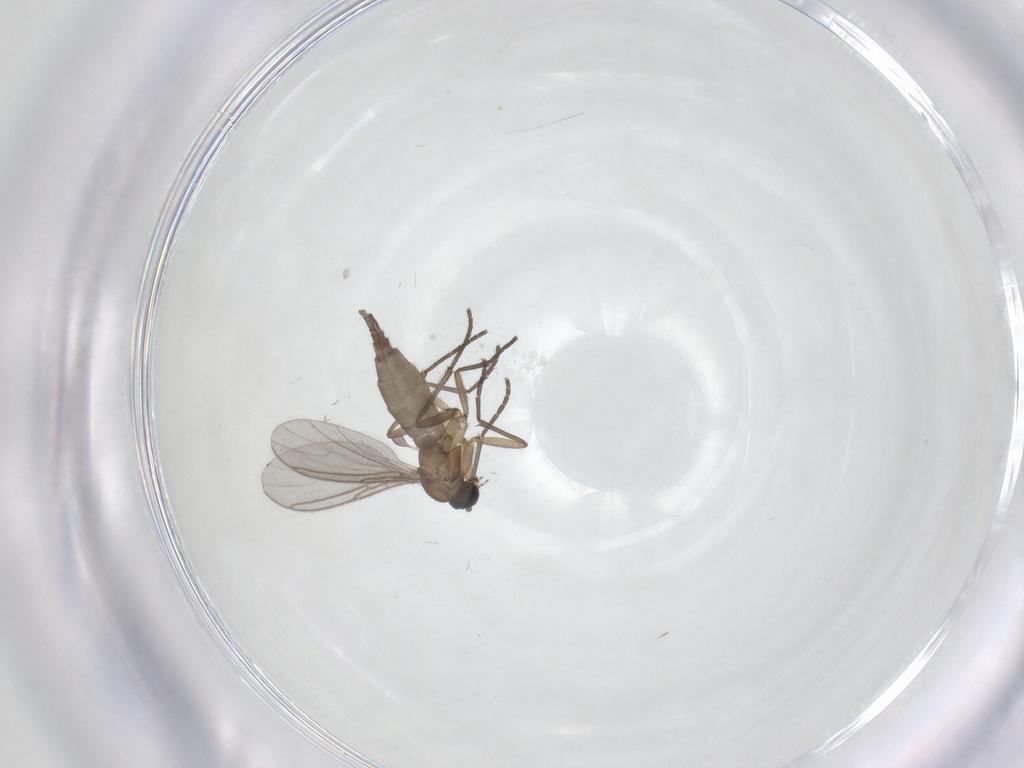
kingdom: Animalia
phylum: Arthropoda
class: Insecta
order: Diptera
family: Sciaridae
